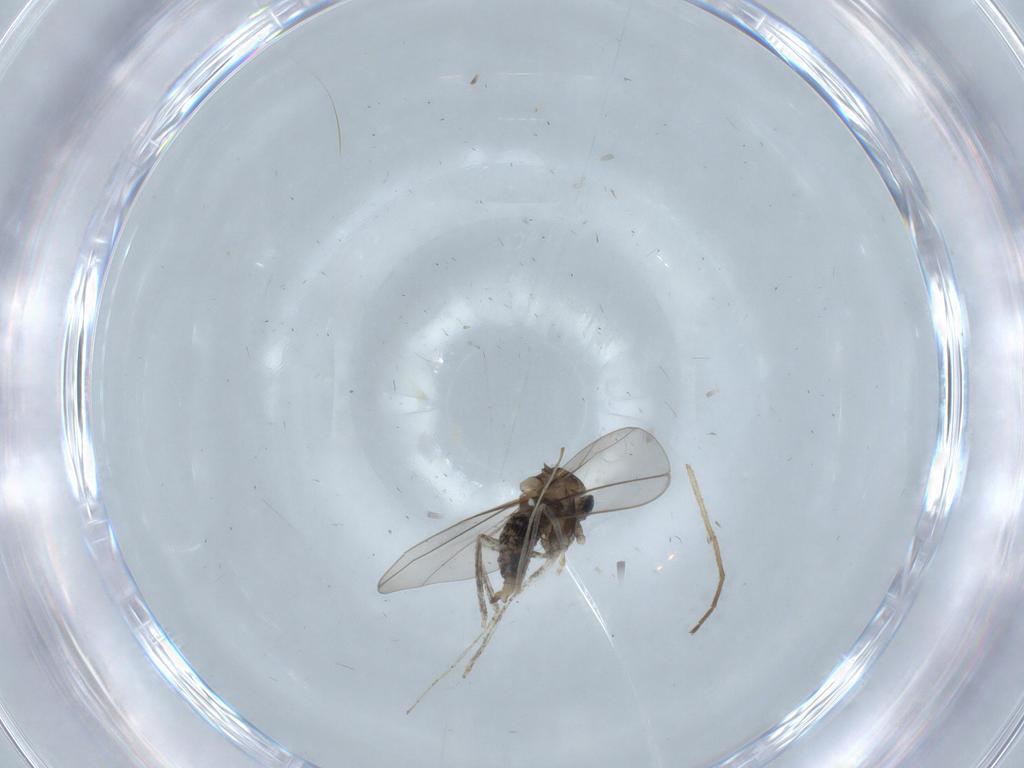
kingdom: Animalia
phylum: Arthropoda
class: Insecta
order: Diptera
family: Cecidomyiidae
